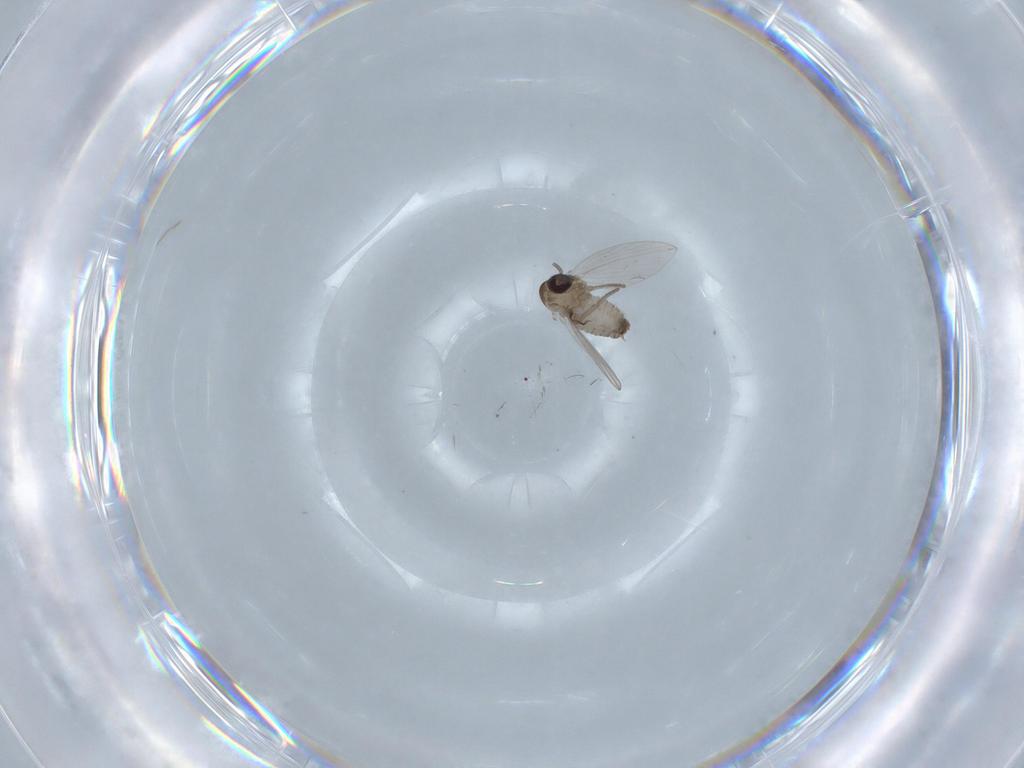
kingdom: Animalia
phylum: Arthropoda
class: Insecta
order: Diptera
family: Psychodidae
